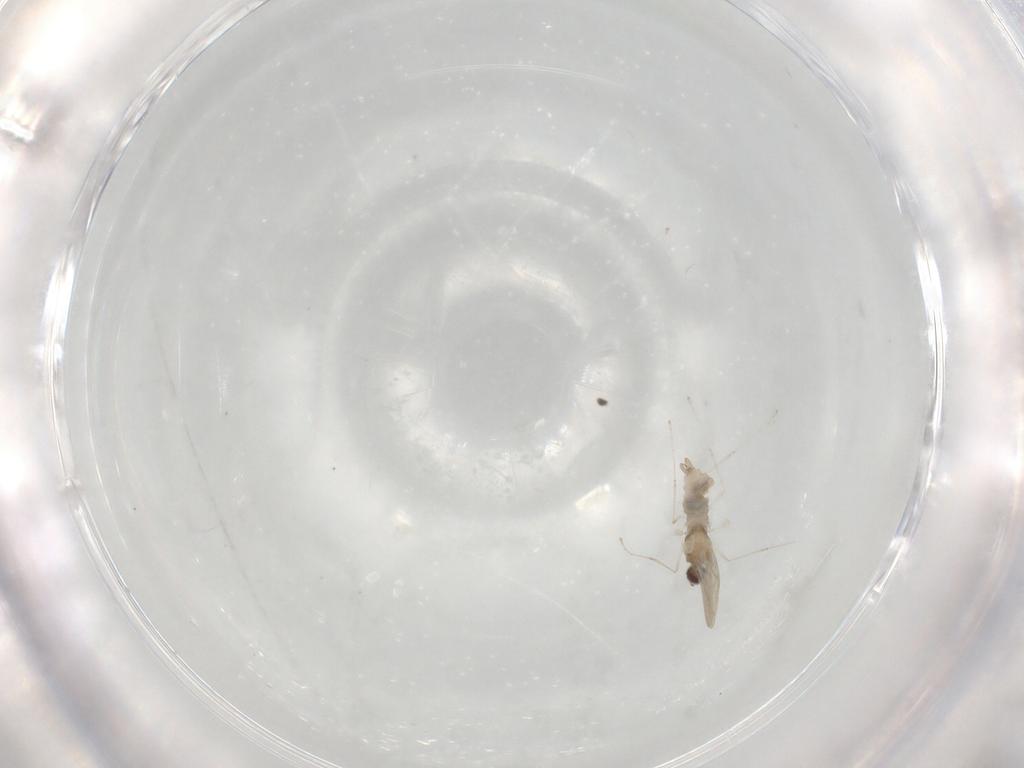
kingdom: Animalia
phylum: Arthropoda
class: Insecta
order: Diptera
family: Cecidomyiidae
